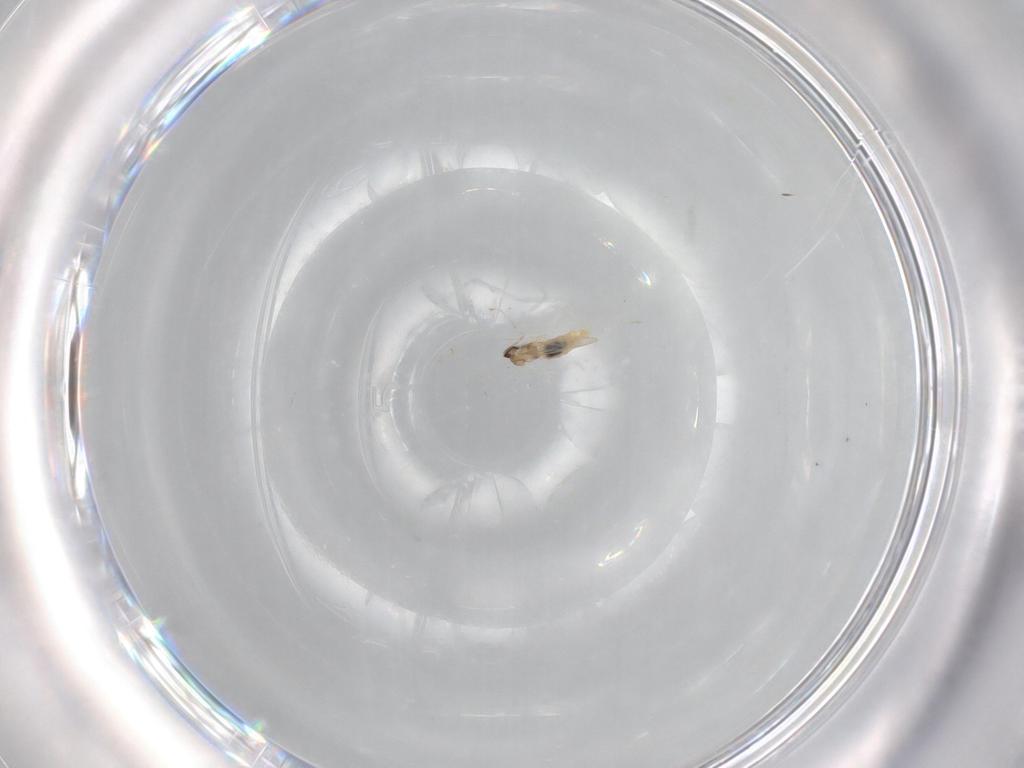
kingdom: Animalia
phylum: Arthropoda
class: Insecta
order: Diptera
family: Cecidomyiidae
